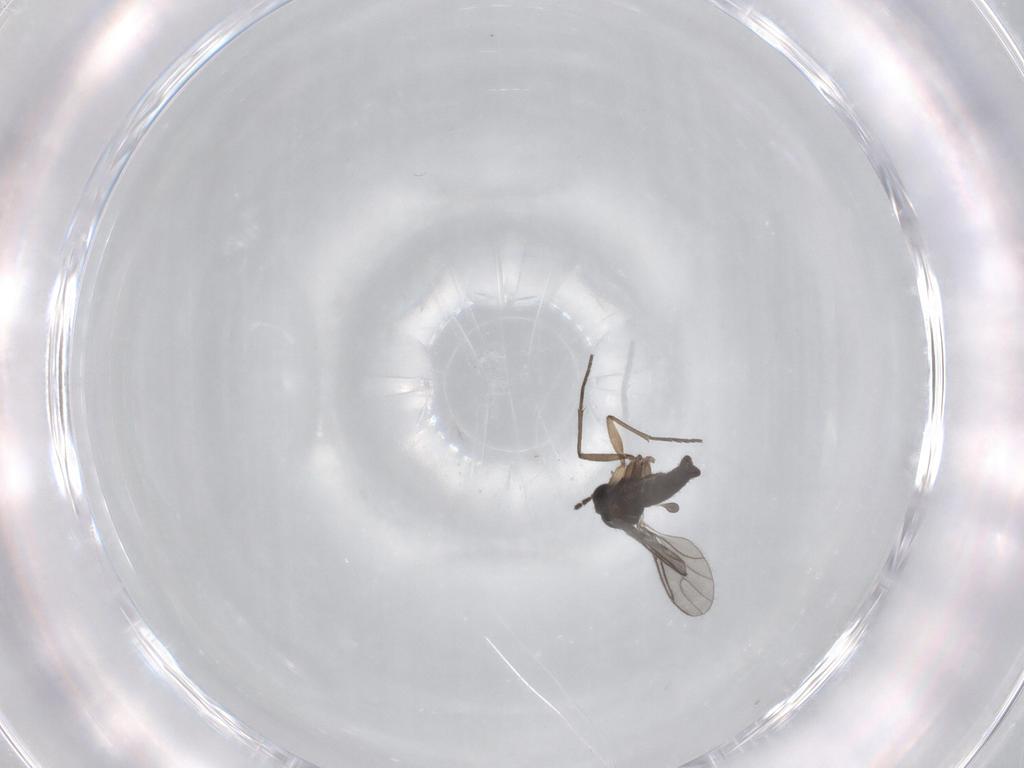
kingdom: Animalia
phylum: Arthropoda
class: Insecta
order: Diptera
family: Sciaridae
